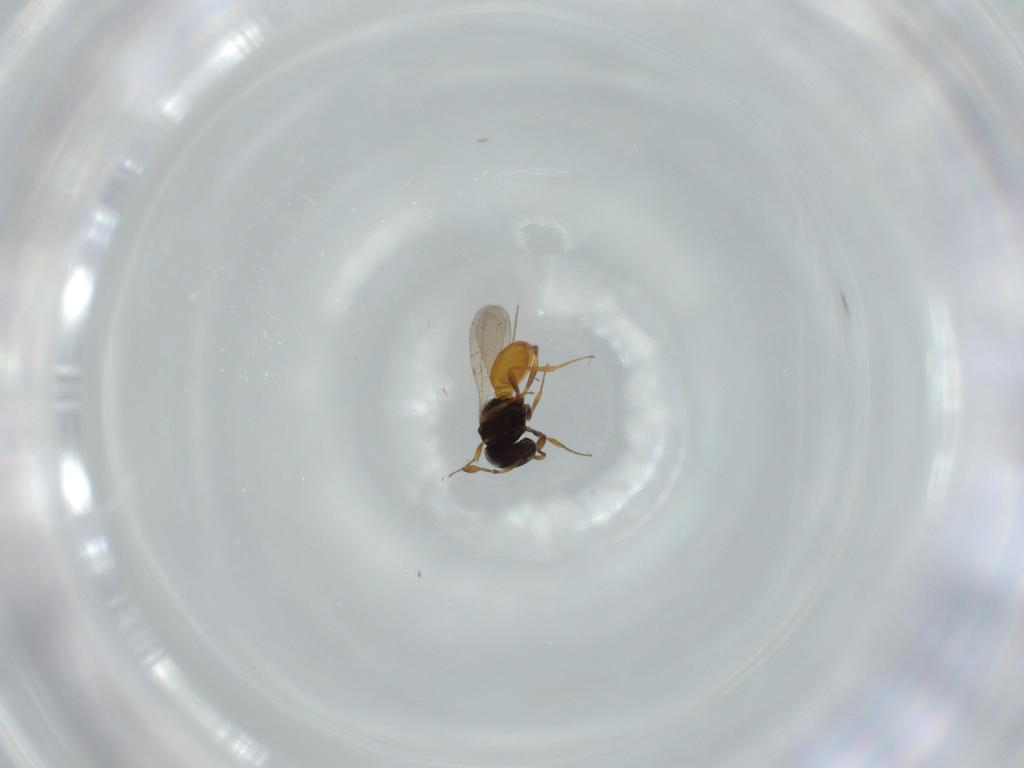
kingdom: Animalia
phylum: Arthropoda
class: Insecta
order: Hymenoptera
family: Scelionidae
